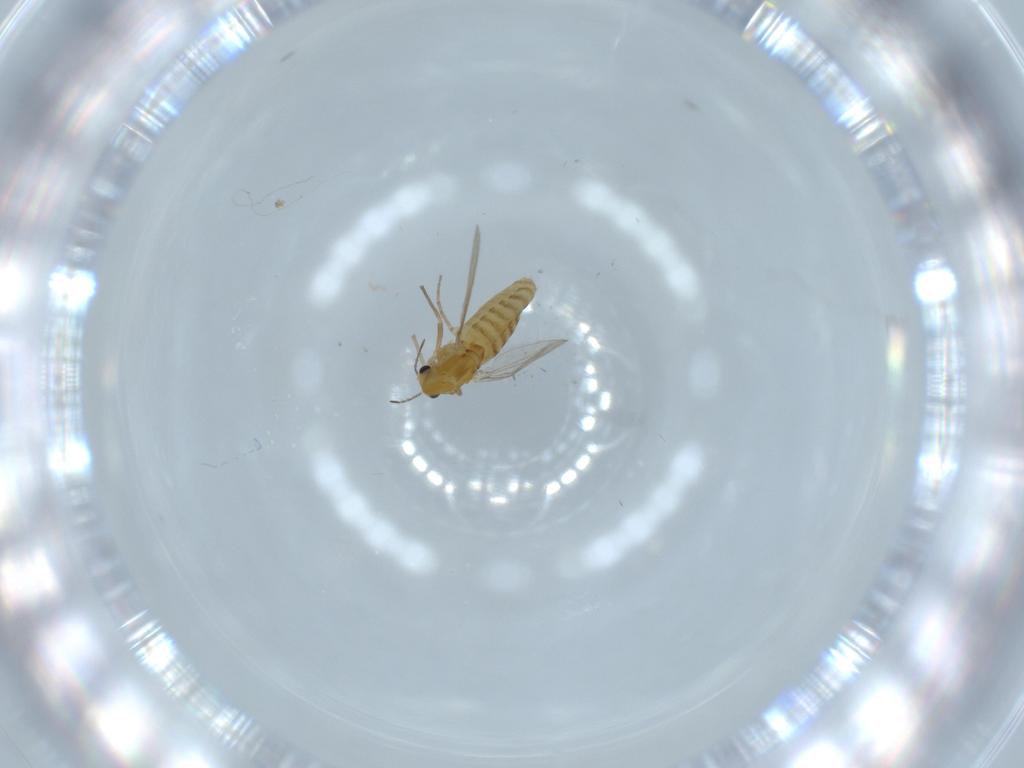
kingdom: Animalia
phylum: Arthropoda
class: Insecta
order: Diptera
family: Chironomidae
